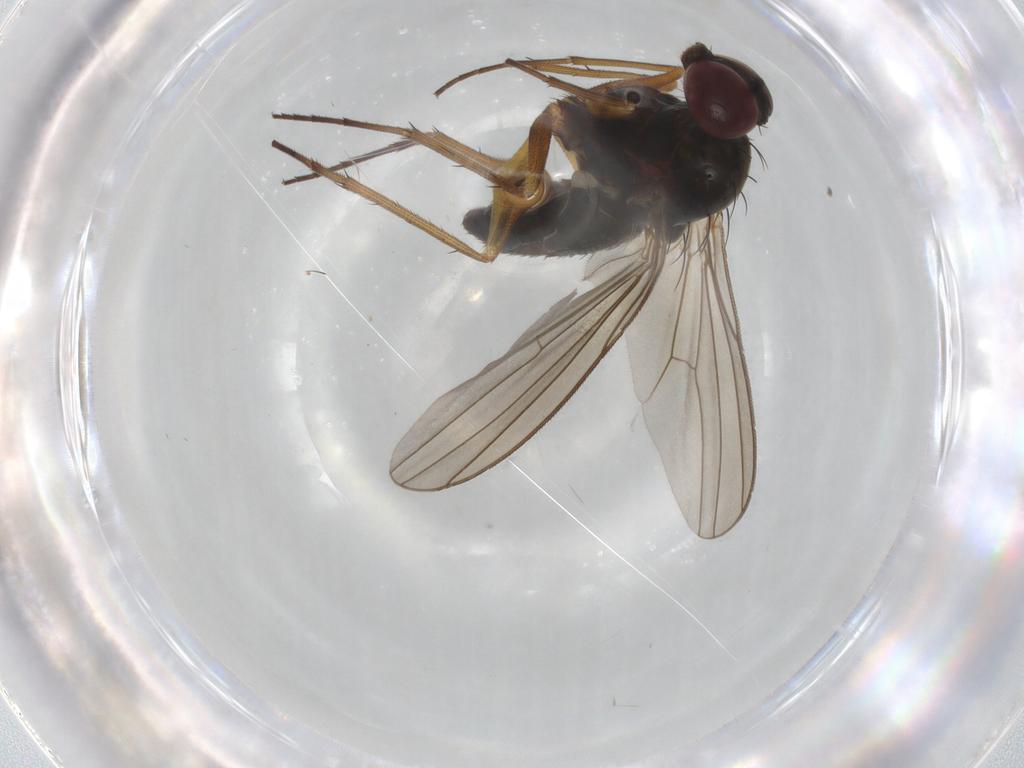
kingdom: Animalia
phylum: Arthropoda
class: Insecta
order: Diptera
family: Dolichopodidae
